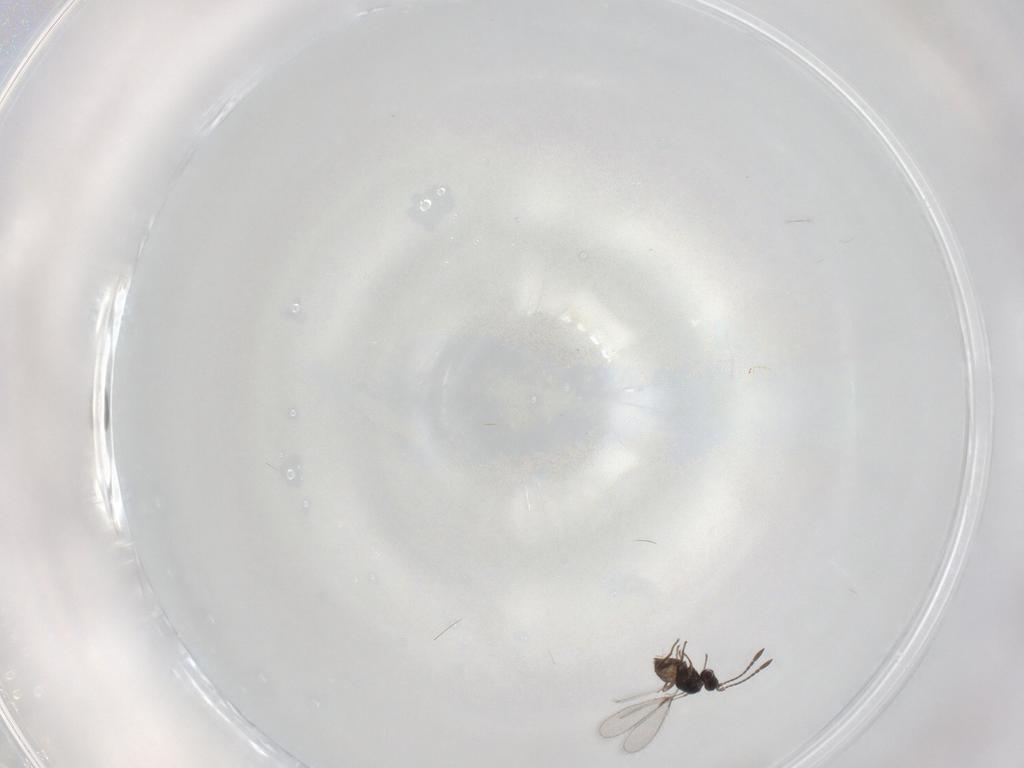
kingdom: Animalia
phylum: Arthropoda
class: Insecta
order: Hymenoptera
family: Mymaridae
